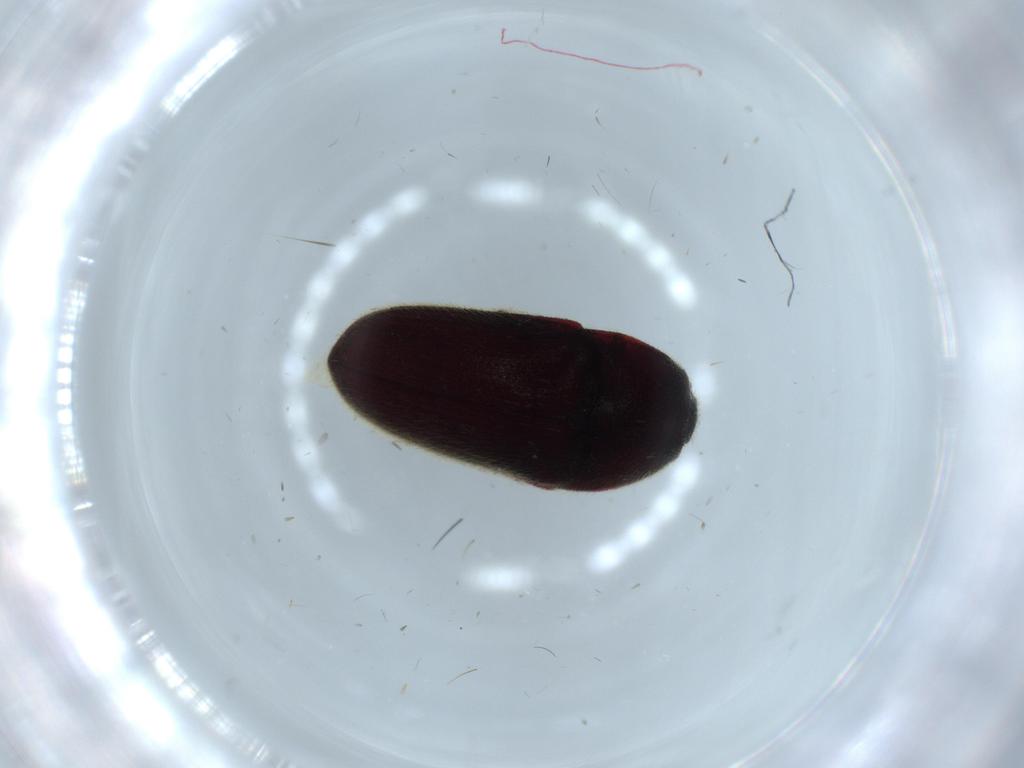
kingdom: Animalia
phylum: Arthropoda
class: Insecta
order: Coleoptera
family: Throscidae
